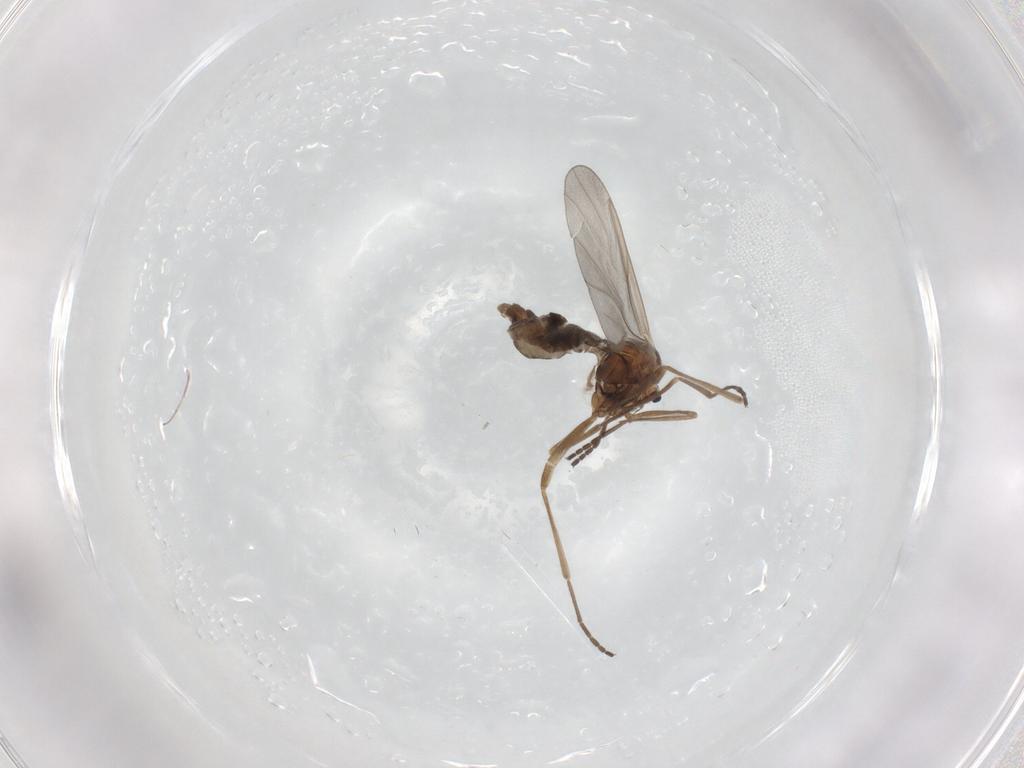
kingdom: Animalia
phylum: Arthropoda
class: Insecta
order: Diptera
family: Cecidomyiidae
